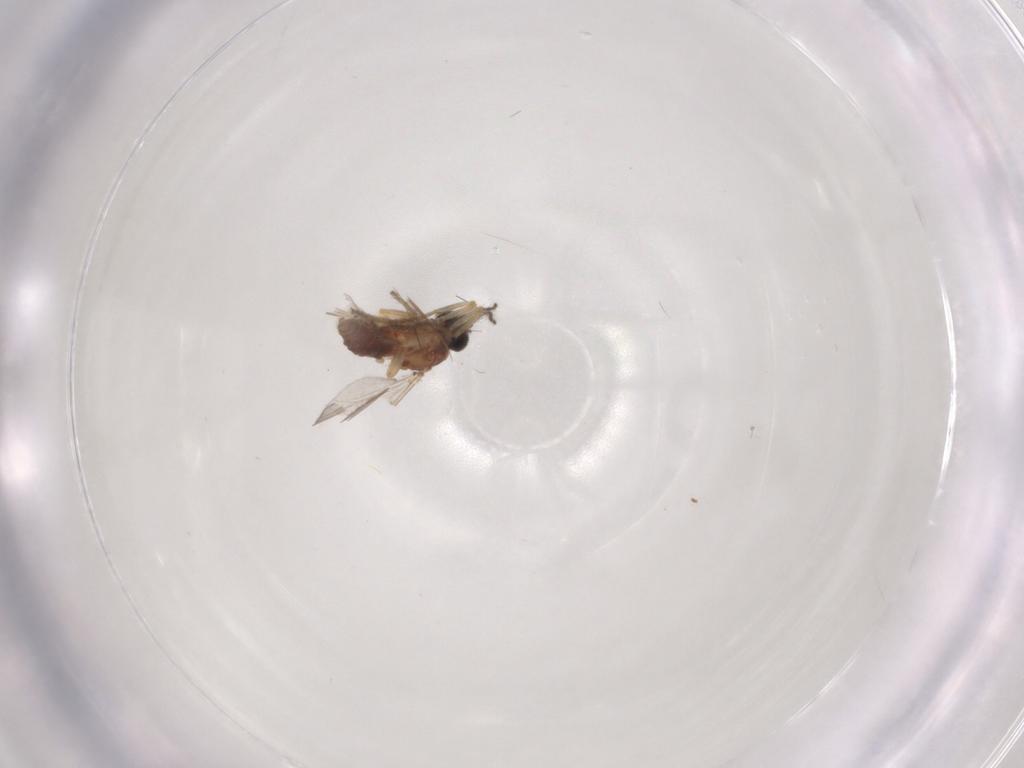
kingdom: Animalia
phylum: Arthropoda
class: Insecta
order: Diptera
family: Ceratopogonidae
